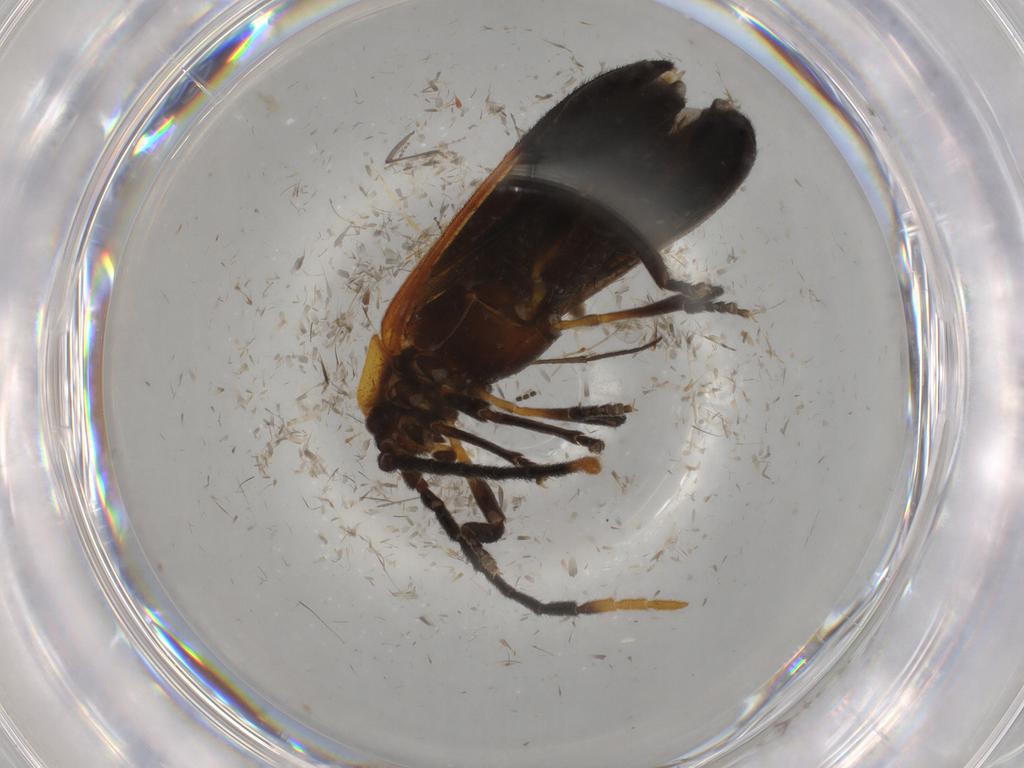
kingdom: Animalia
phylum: Arthropoda
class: Insecta
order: Coleoptera
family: Lycidae
